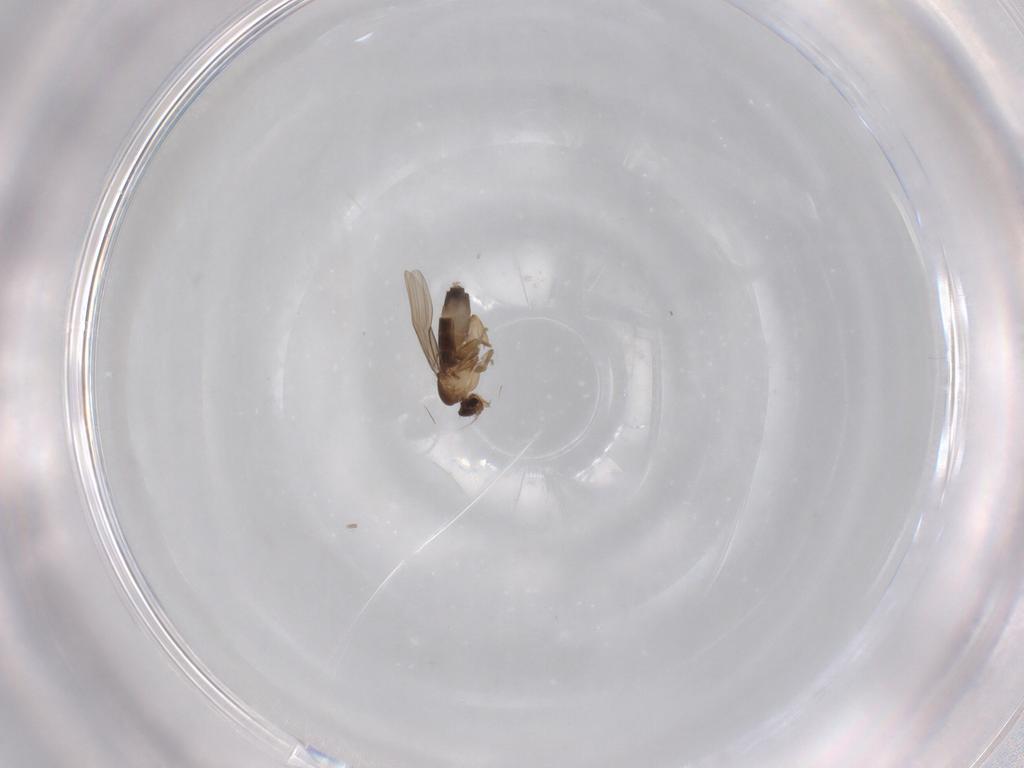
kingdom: Animalia
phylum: Arthropoda
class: Insecta
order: Diptera
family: Phoridae
